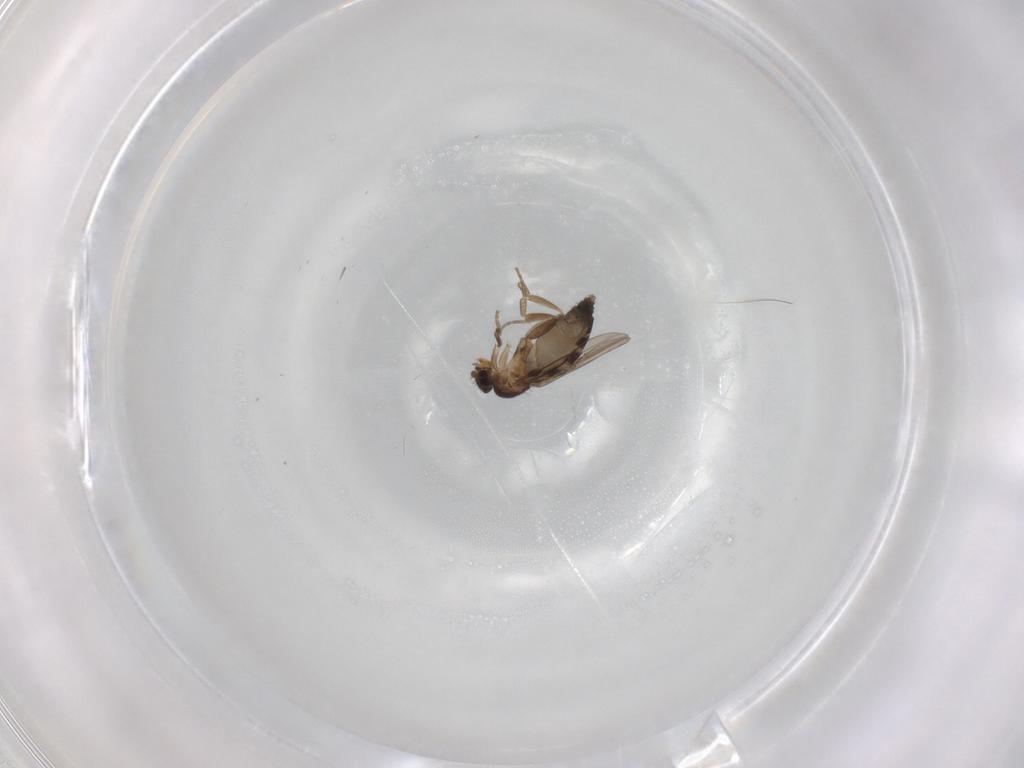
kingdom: Animalia
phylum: Arthropoda
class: Insecta
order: Diptera
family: Phoridae
